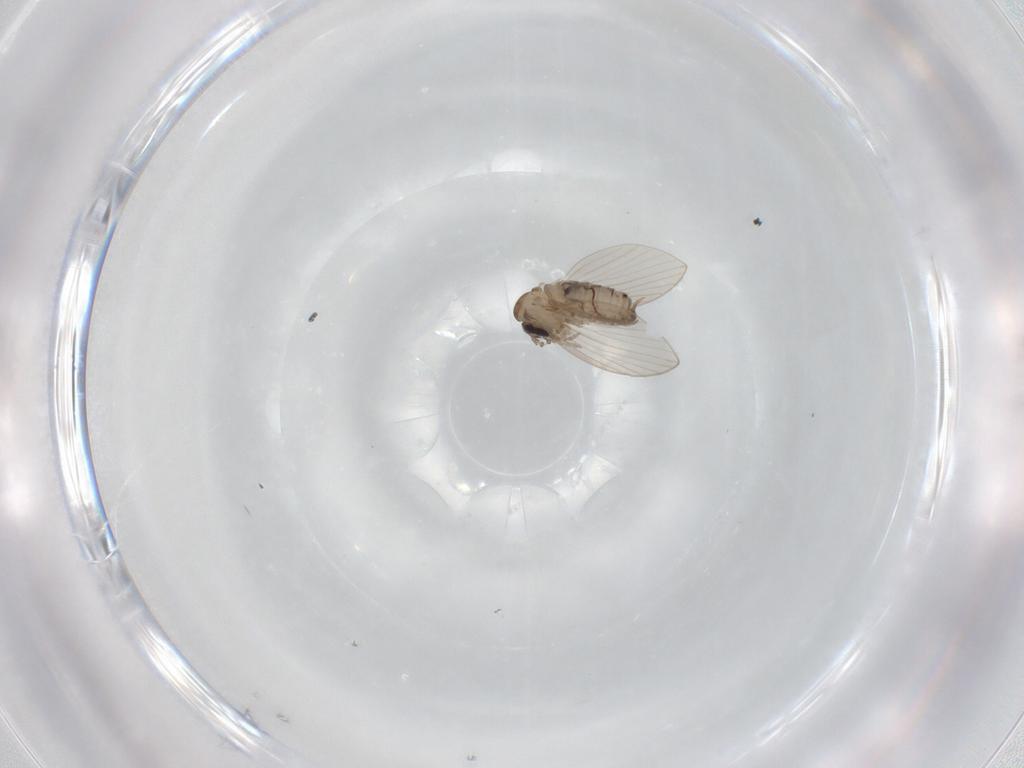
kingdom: Animalia
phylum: Arthropoda
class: Insecta
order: Diptera
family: Psychodidae
